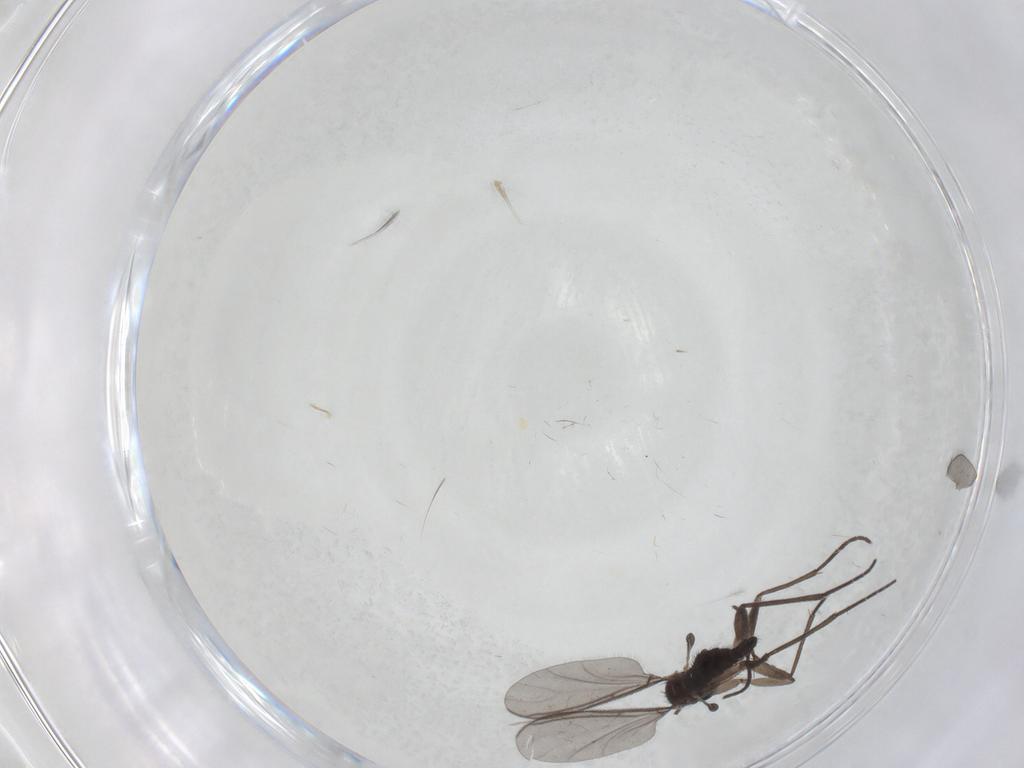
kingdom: Animalia
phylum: Arthropoda
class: Insecta
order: Diptera
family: Sciaridae
